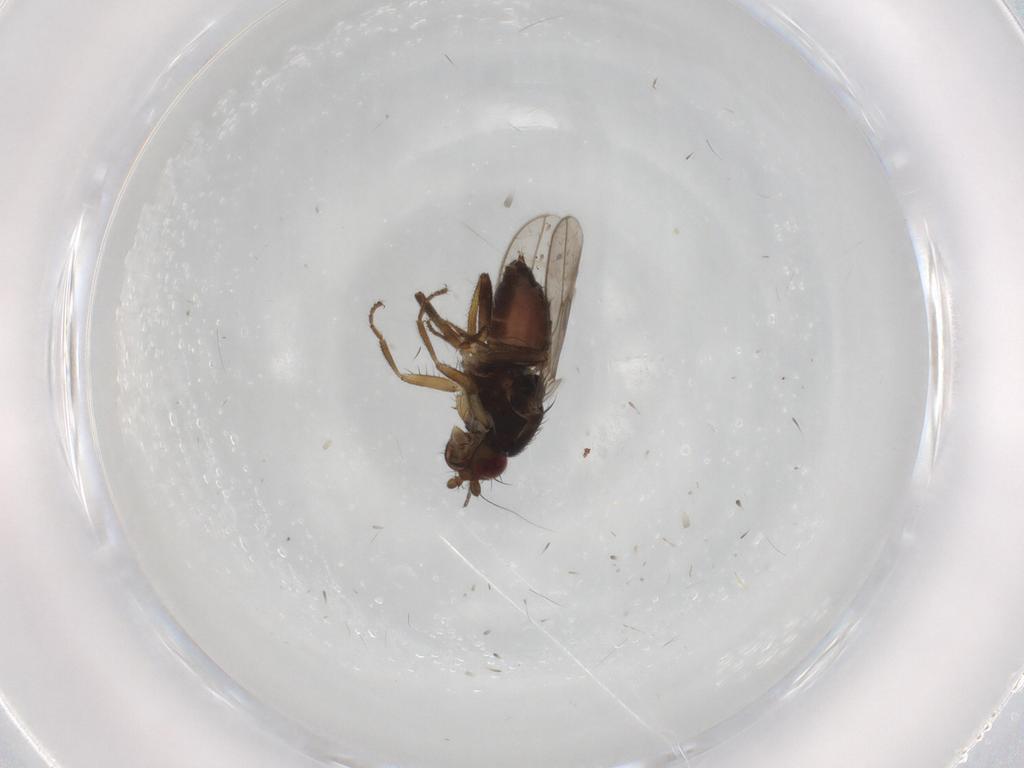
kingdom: Animalia
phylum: Arthropoda
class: Insecta
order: Diptera
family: Sphaeroceridae
